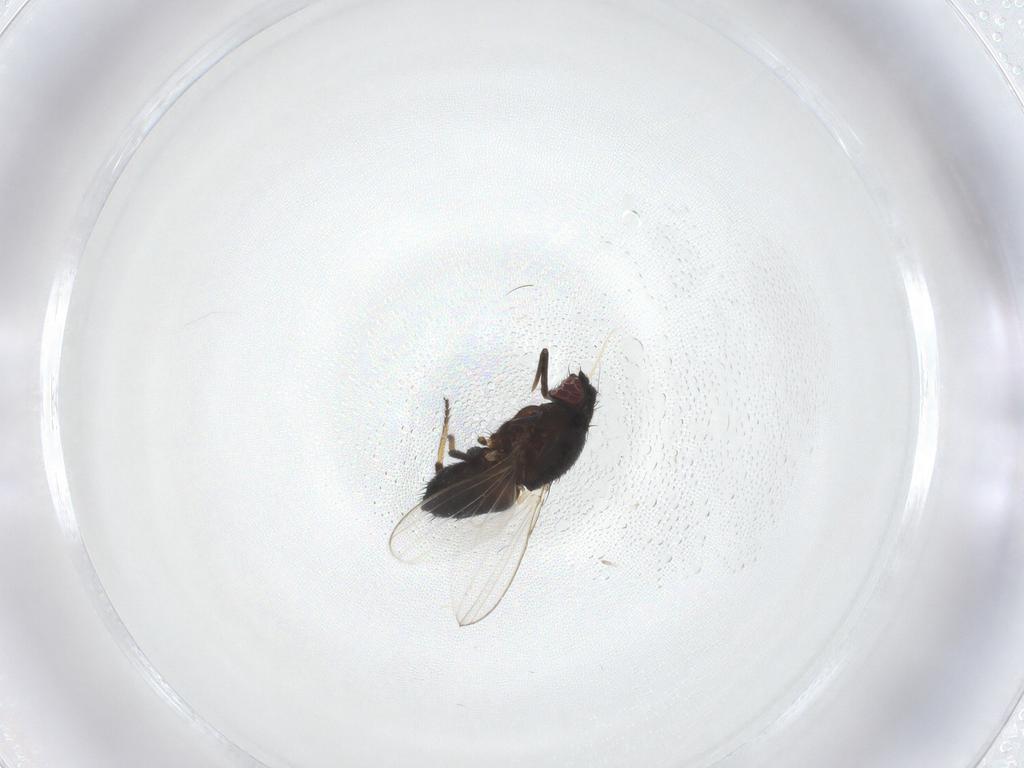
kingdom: Animalia
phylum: Arthropoda
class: Insecta
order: Diptera
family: Milichiidae
